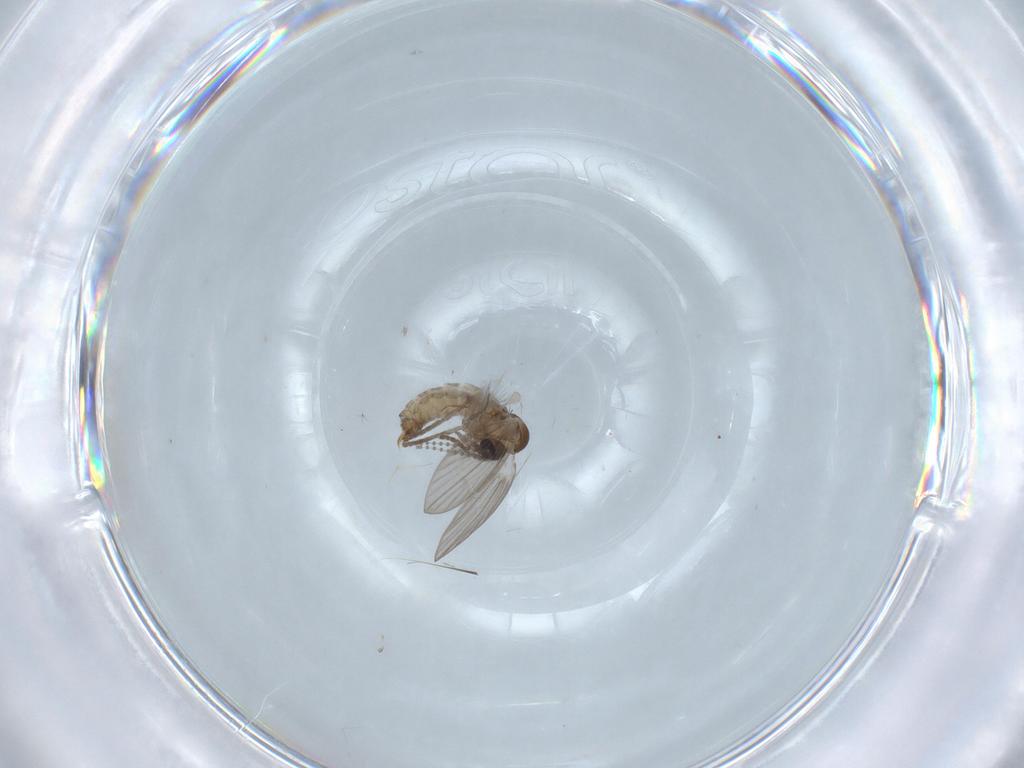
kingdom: Animalia
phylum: Arthropoda
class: Insecta
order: Diptera
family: Psychodidae
